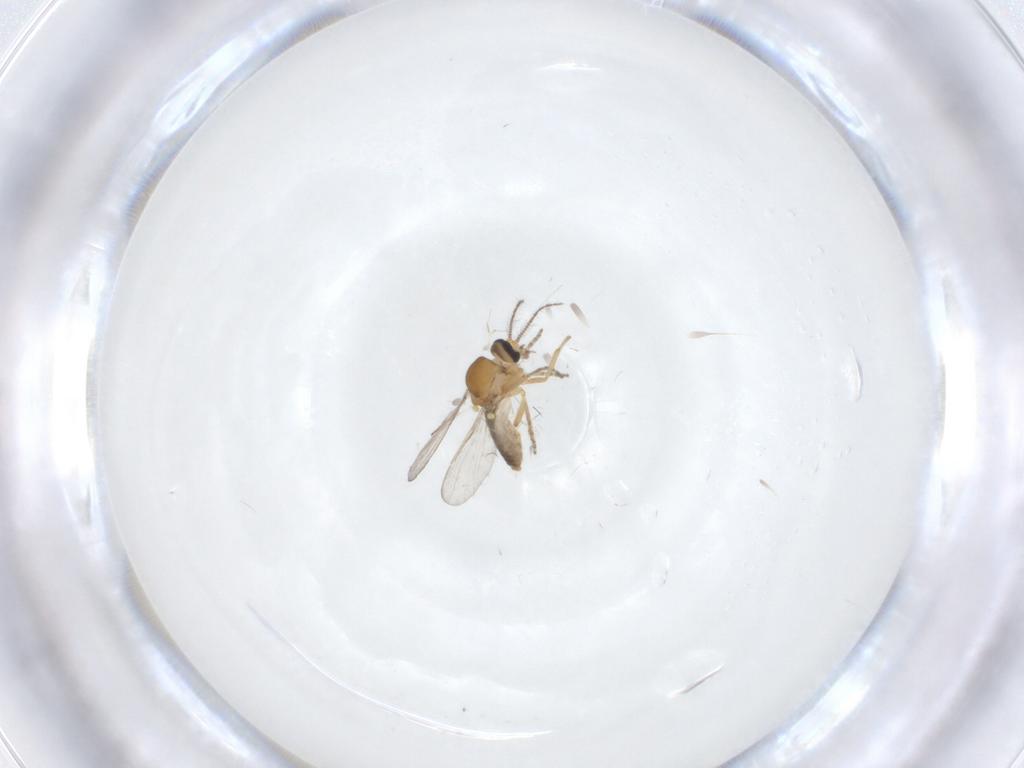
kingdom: Animalia
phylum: Arthropoda
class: Insecta
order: Diptera
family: Ceratopogonidae
